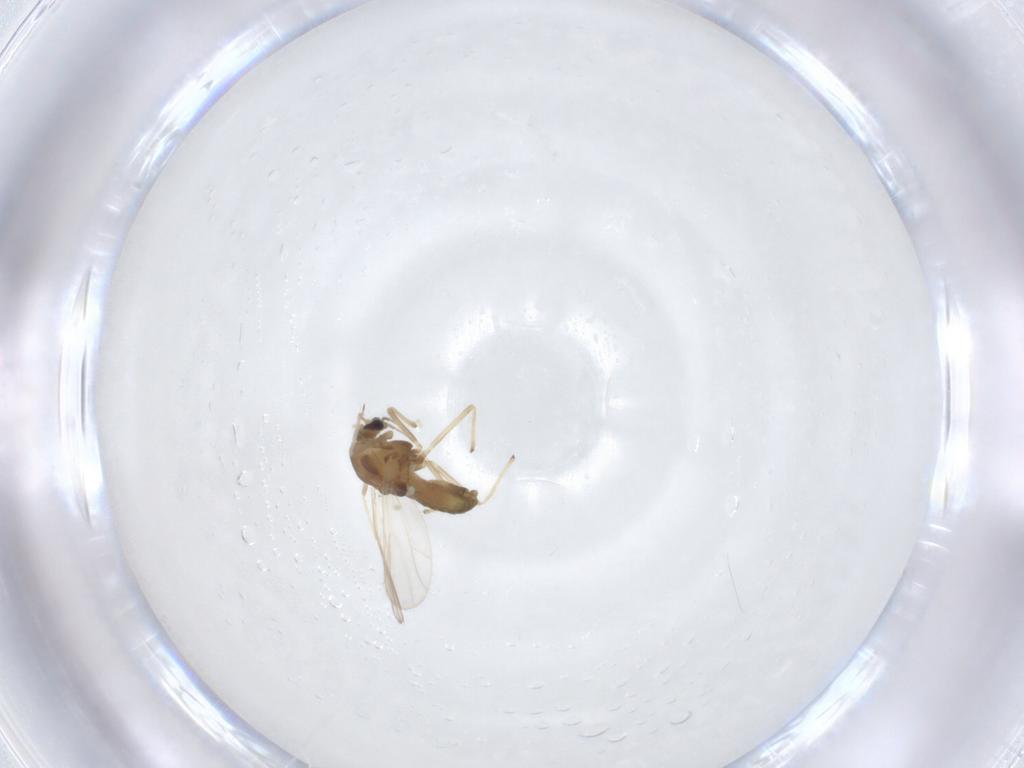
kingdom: Animalia
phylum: Arthropoda
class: Insecta
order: Diptera
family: Chironomidae
